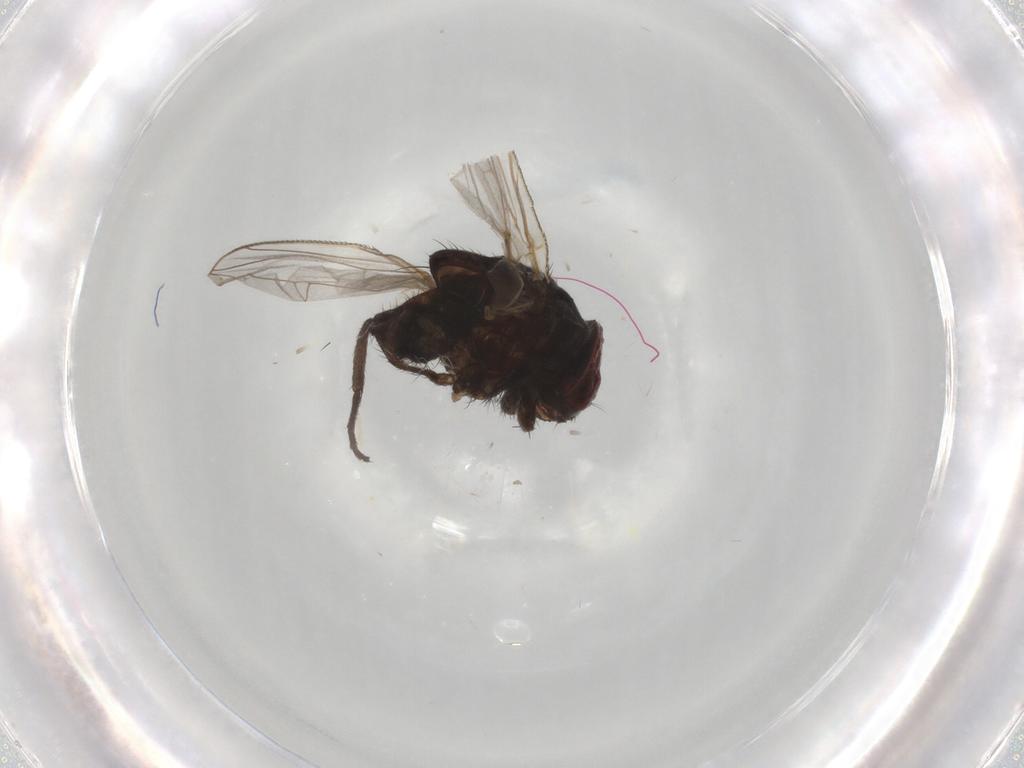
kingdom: Animalia
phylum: Arthropoda
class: Insecta
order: Diptera
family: Glossinidae
